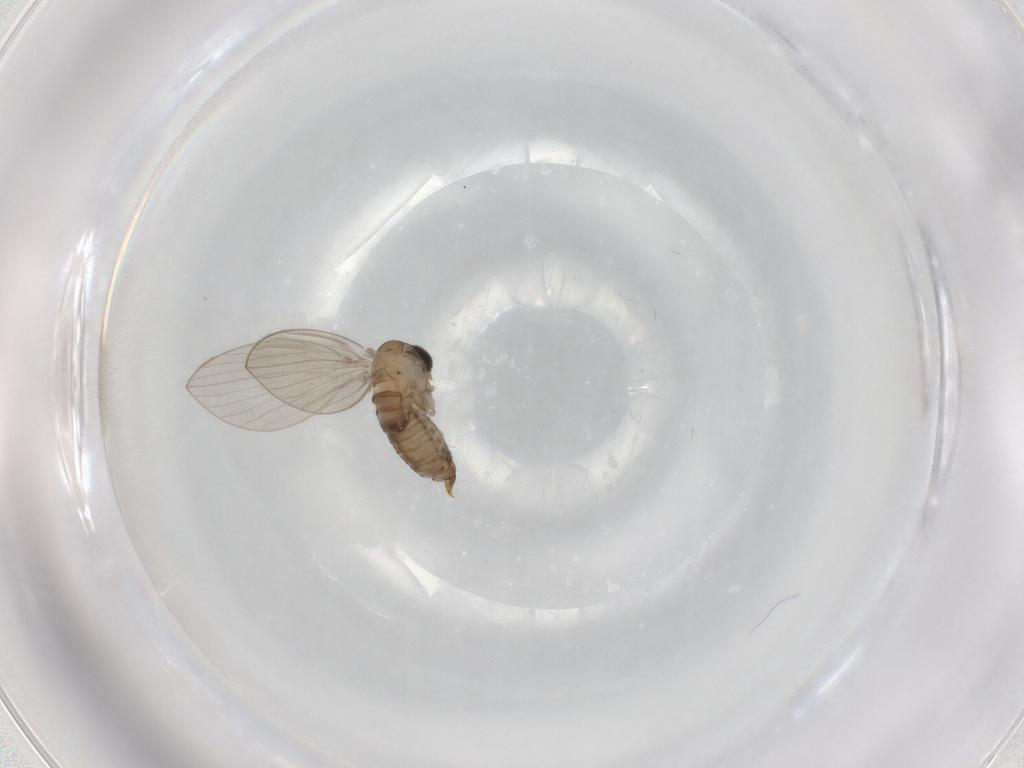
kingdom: Animalia
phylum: Arthropoda
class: Insecta
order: Diptera
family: Psychodidae
